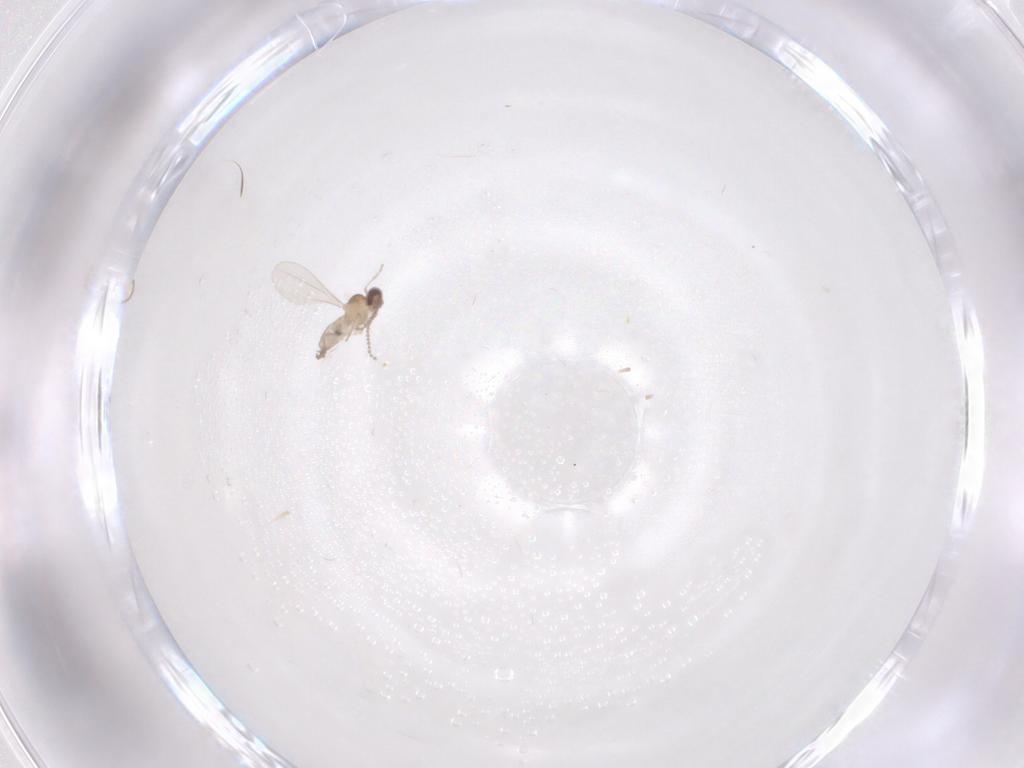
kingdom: Animalia
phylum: Arthropoda
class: Insecta
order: Diptera
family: Cecidomyiidae
